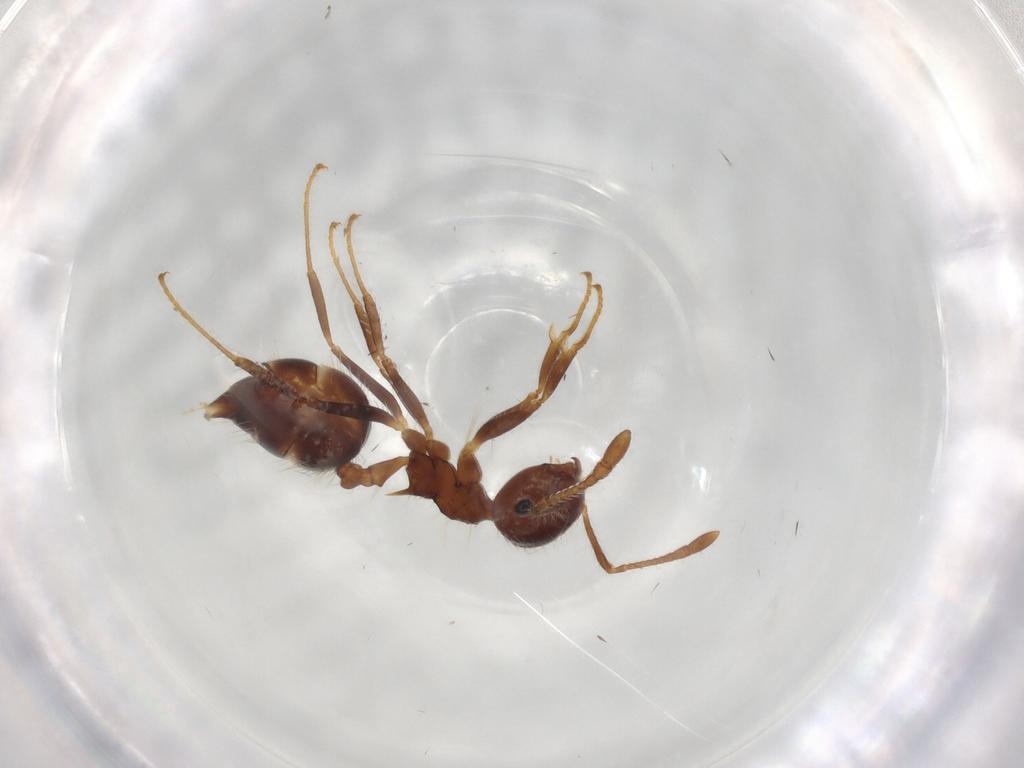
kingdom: Animalia
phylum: Arthropoda
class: Insecta
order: Hymenoptera
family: Formicidae
